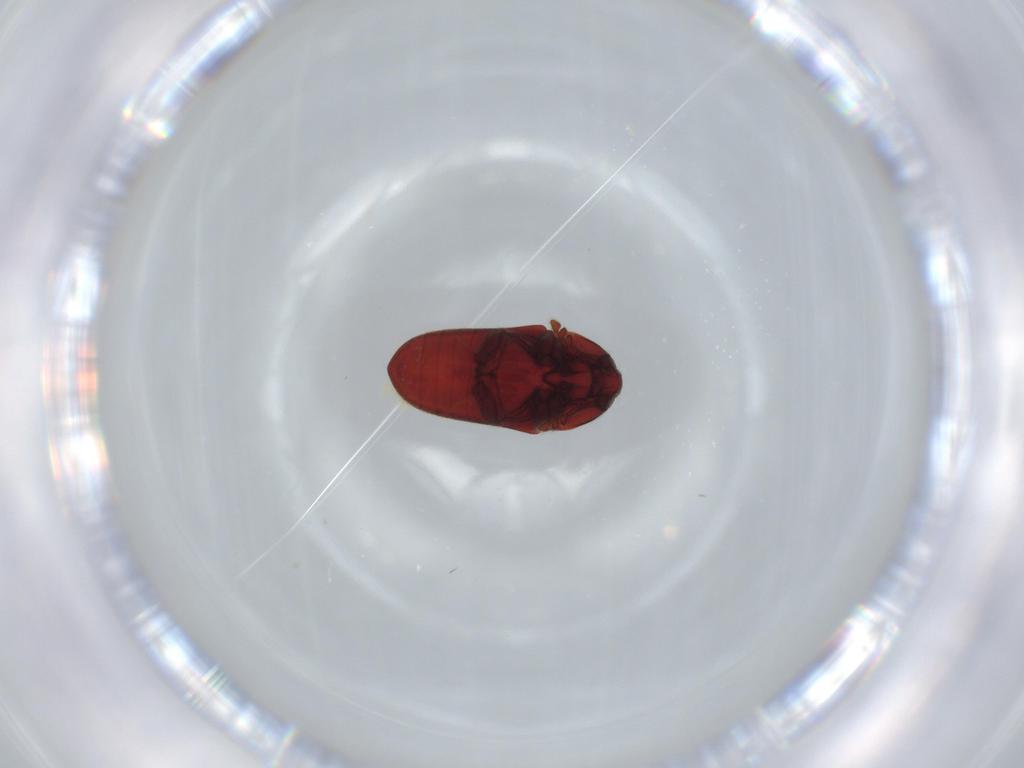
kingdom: Animalia
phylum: Arthropoda
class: Insecta
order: Coleoptera
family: Throscidae
